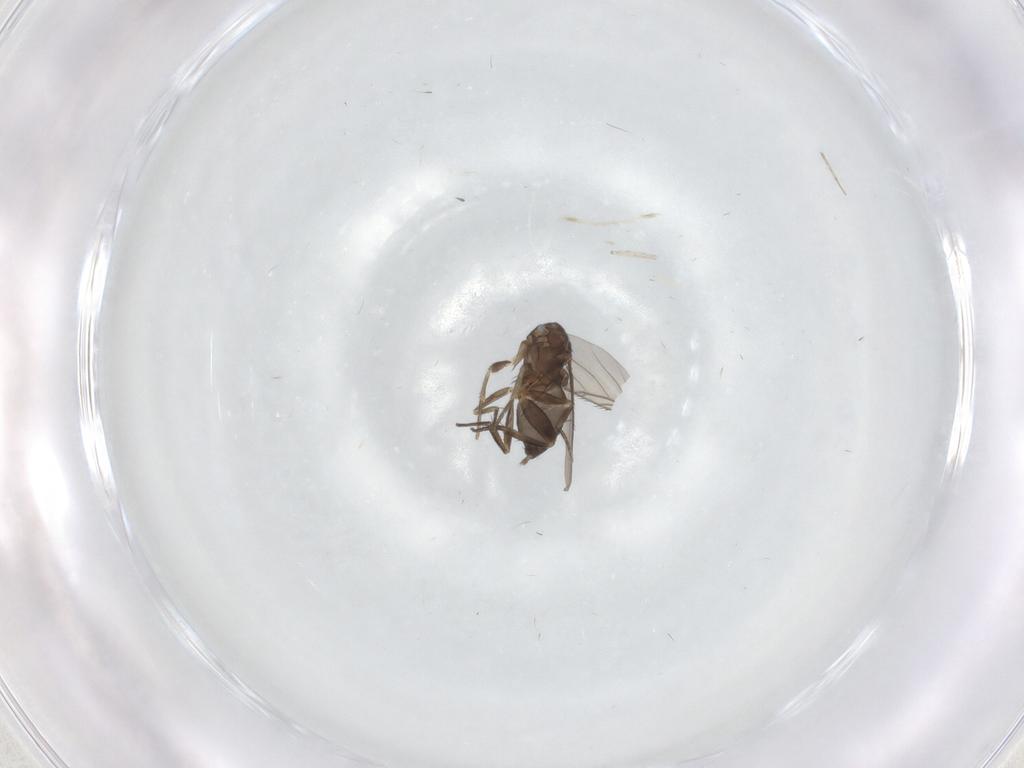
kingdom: Animalia
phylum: Arthropoda
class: Insecta
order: Diptera
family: Phoridae
